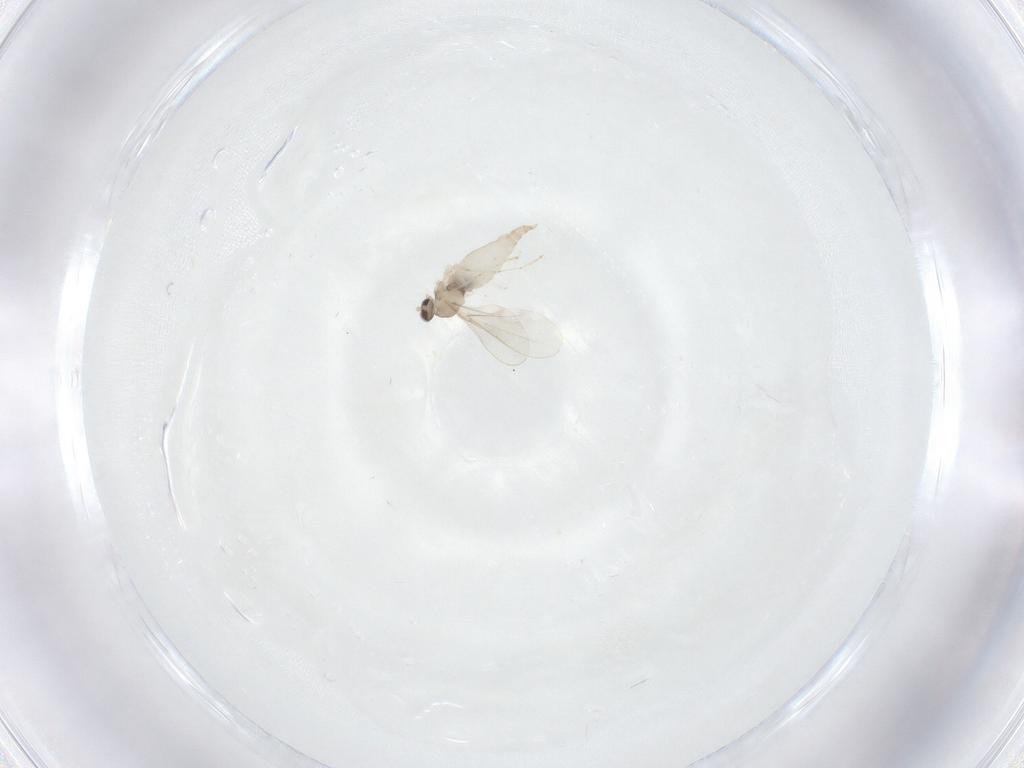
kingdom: Animalia
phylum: Arthropoda
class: Insecta
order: Diptera
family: Cecidomyiidae
